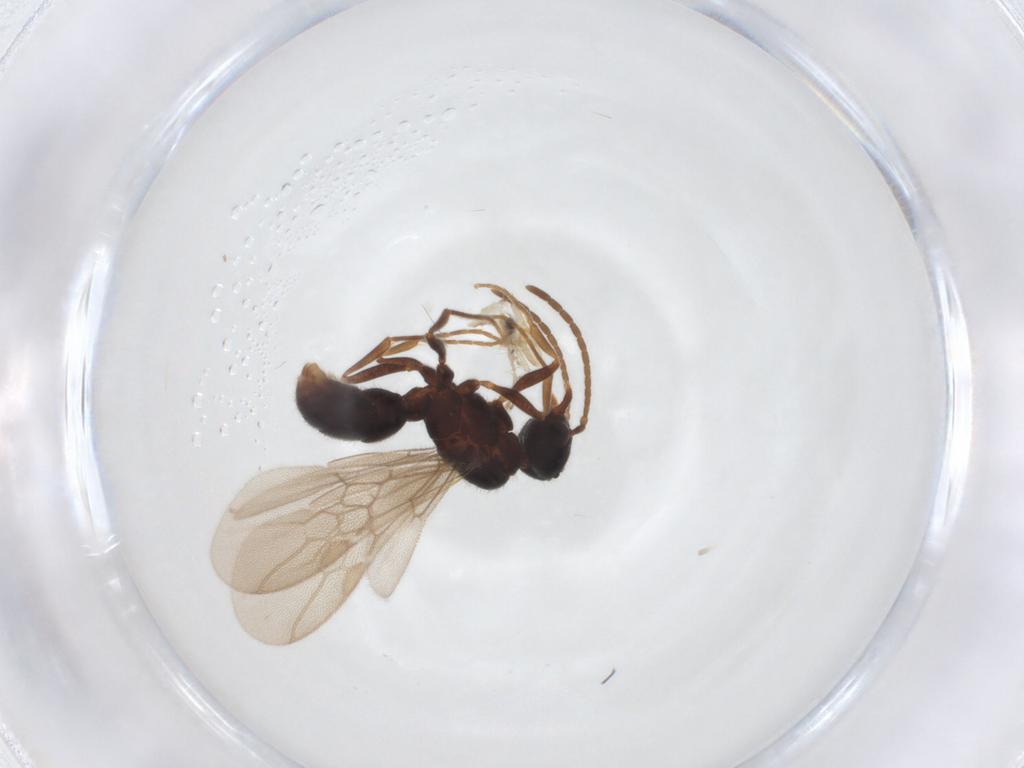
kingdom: Animalia
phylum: Arthropoda
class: Insecta
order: Hymenoptera
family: Formicidae
